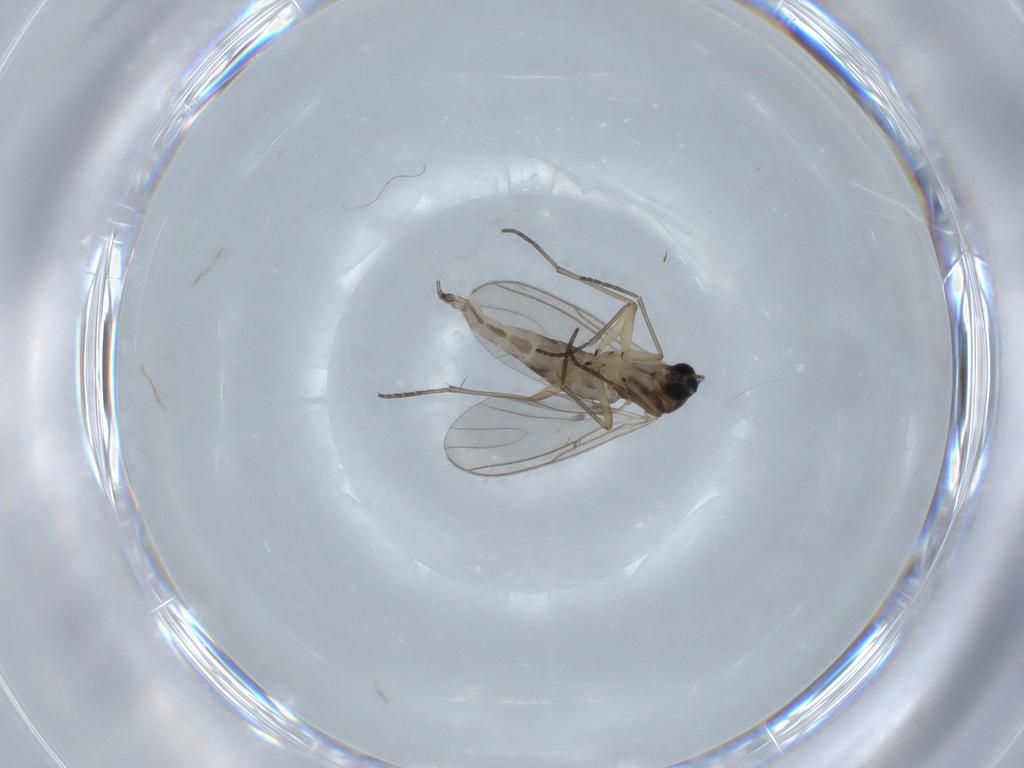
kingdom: Animalia
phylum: Arthropoda
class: Insecta
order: Diptera
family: Sciaridae
